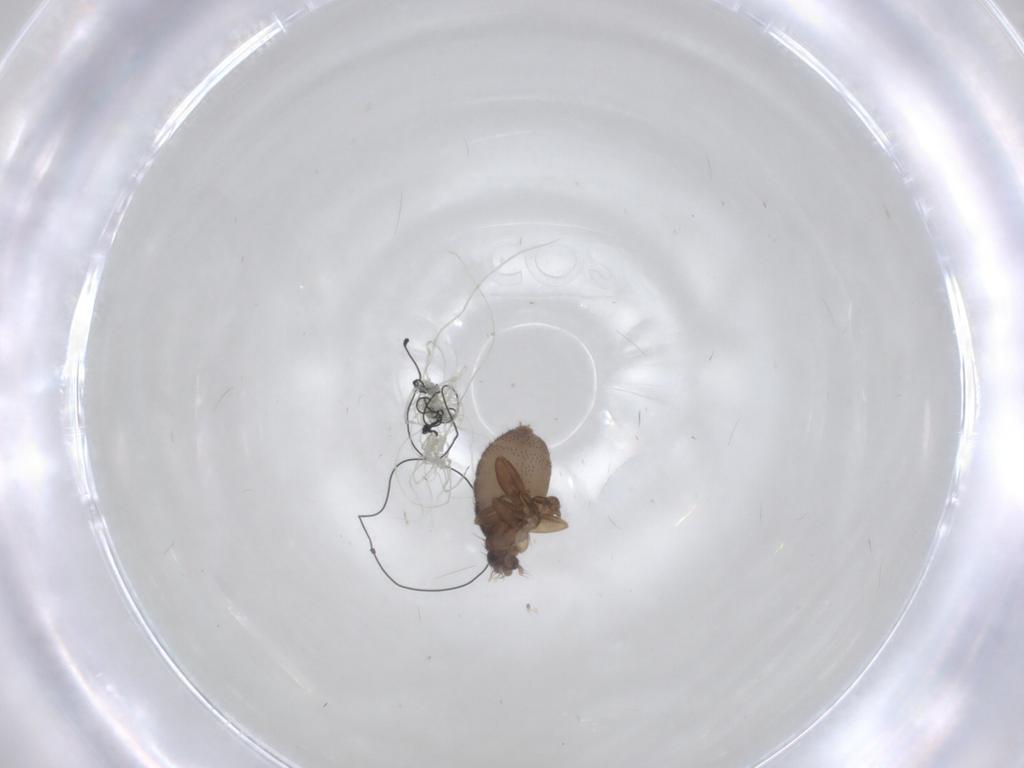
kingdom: Animalia
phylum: Arthropoda
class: Insecta
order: Diptera
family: Phoridae
